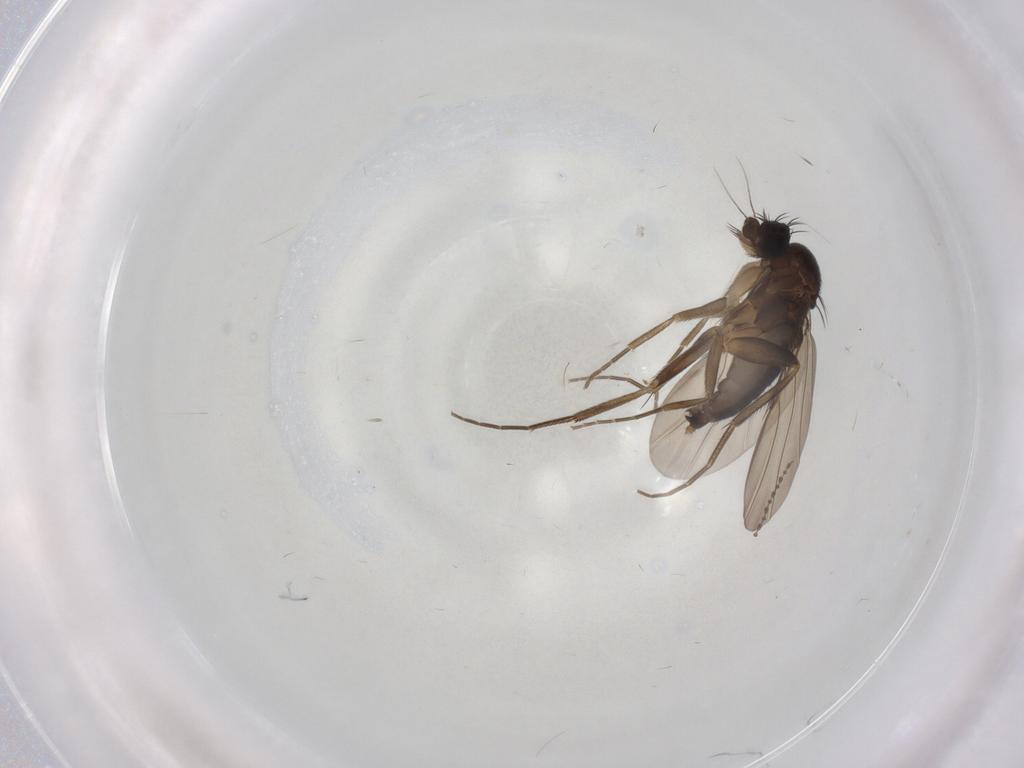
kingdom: Animalia
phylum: Arthropoda
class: Insecta
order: Diptera
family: Phoridae
